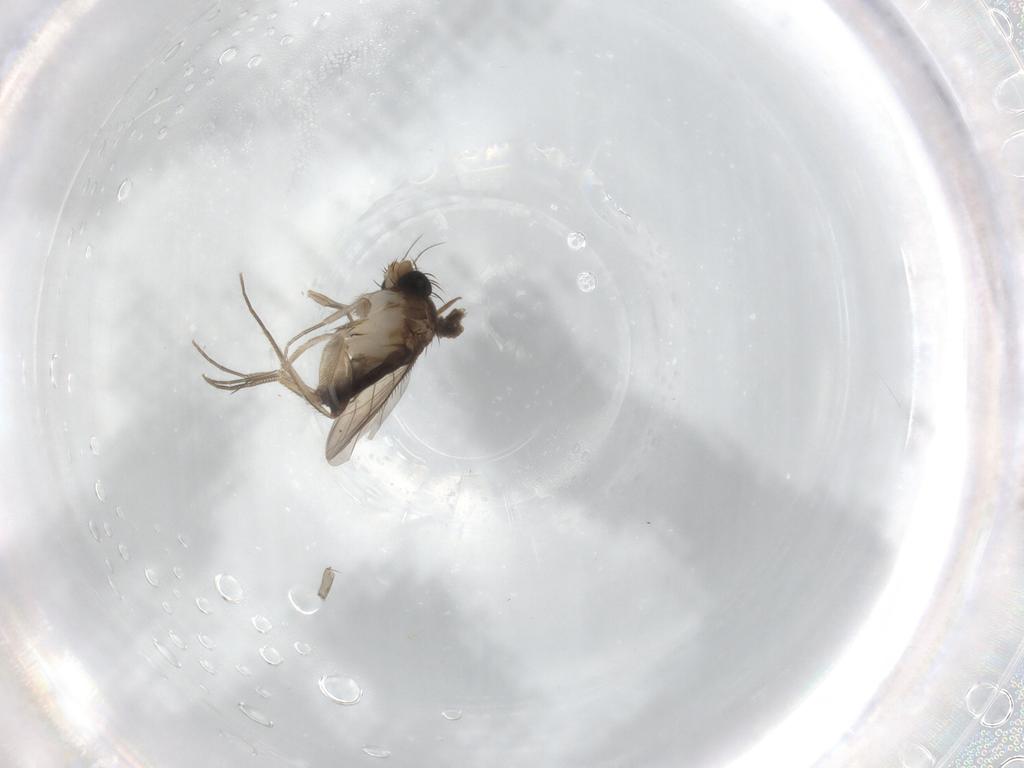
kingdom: Animalia
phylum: Arthropoda
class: Insecta
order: Diptera
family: Phoridae
